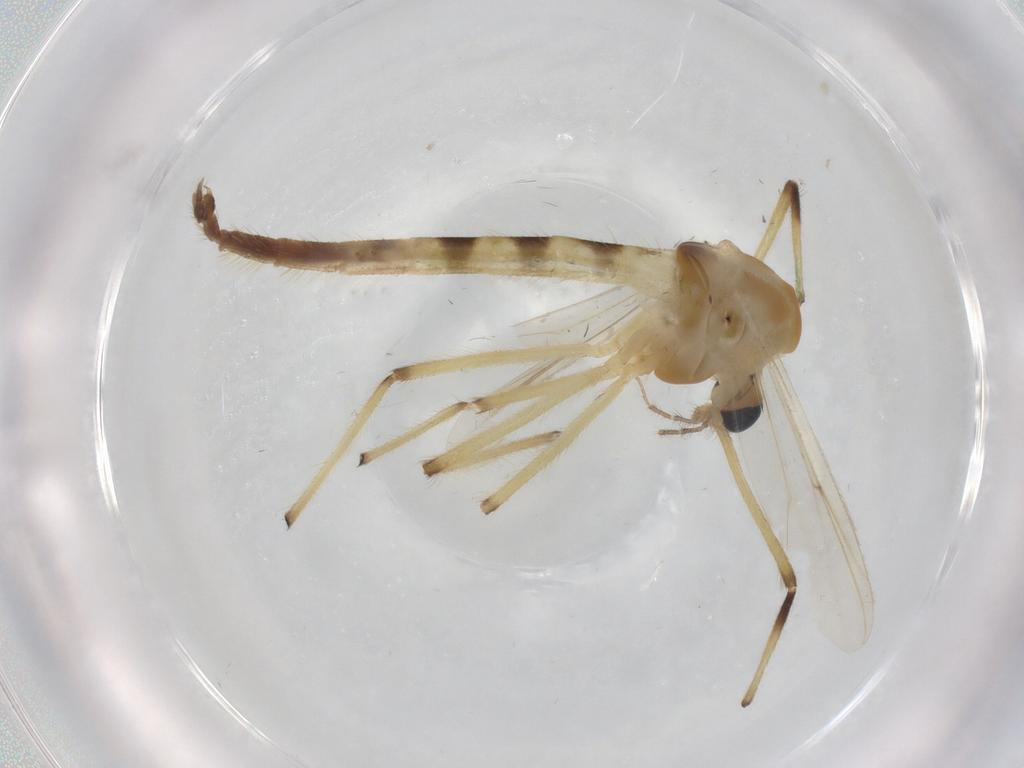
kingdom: Animalia
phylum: Arthropoda
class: Insecta
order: Diptera
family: Chironomidae
